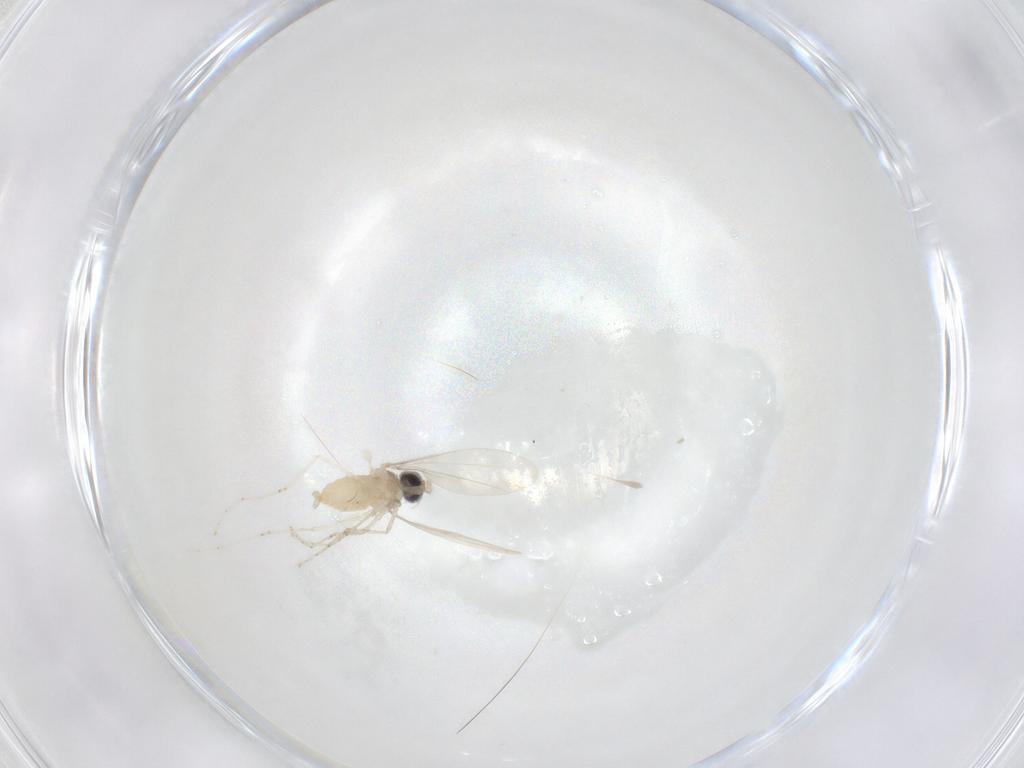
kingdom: Animalia
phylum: Arthropoda
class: Insecta
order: Diptera
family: Cecidomyiidae
